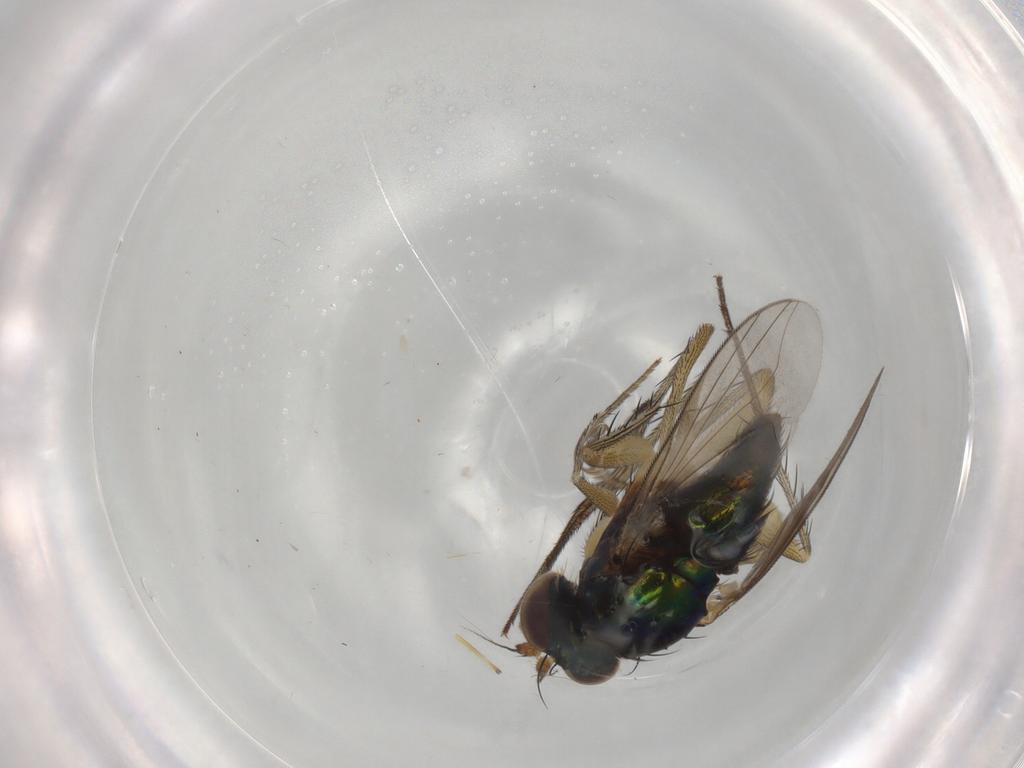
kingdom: Animalia
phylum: Arthropoda
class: Insecta
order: Diptera
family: Dolichopodidae
